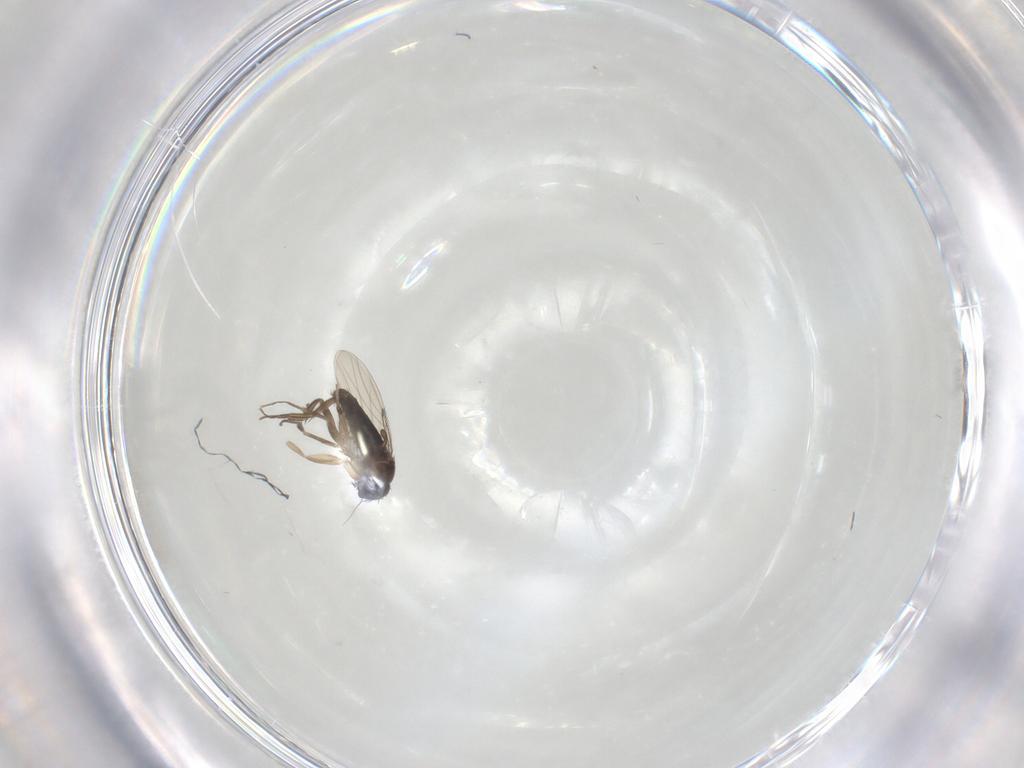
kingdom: Animalia
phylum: Arthropoda
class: Insecta
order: Diptera
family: Phoridae
